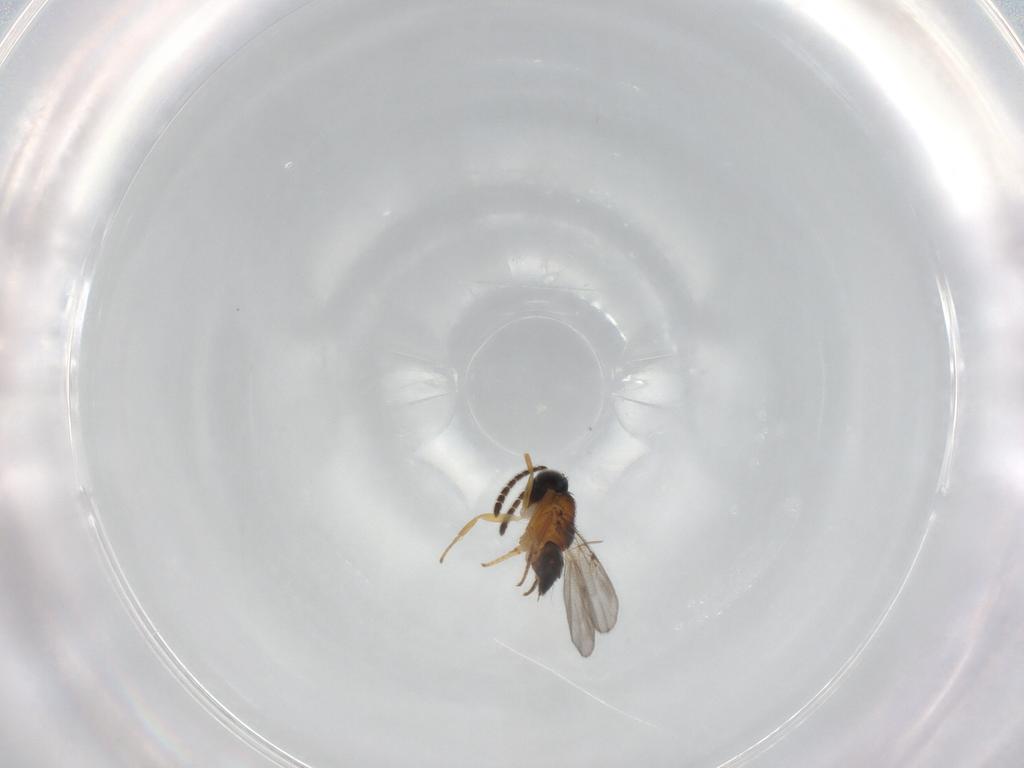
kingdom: Animalia
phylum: Arthropoda
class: Insecta
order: Hymenoptera
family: Encyrtidae
